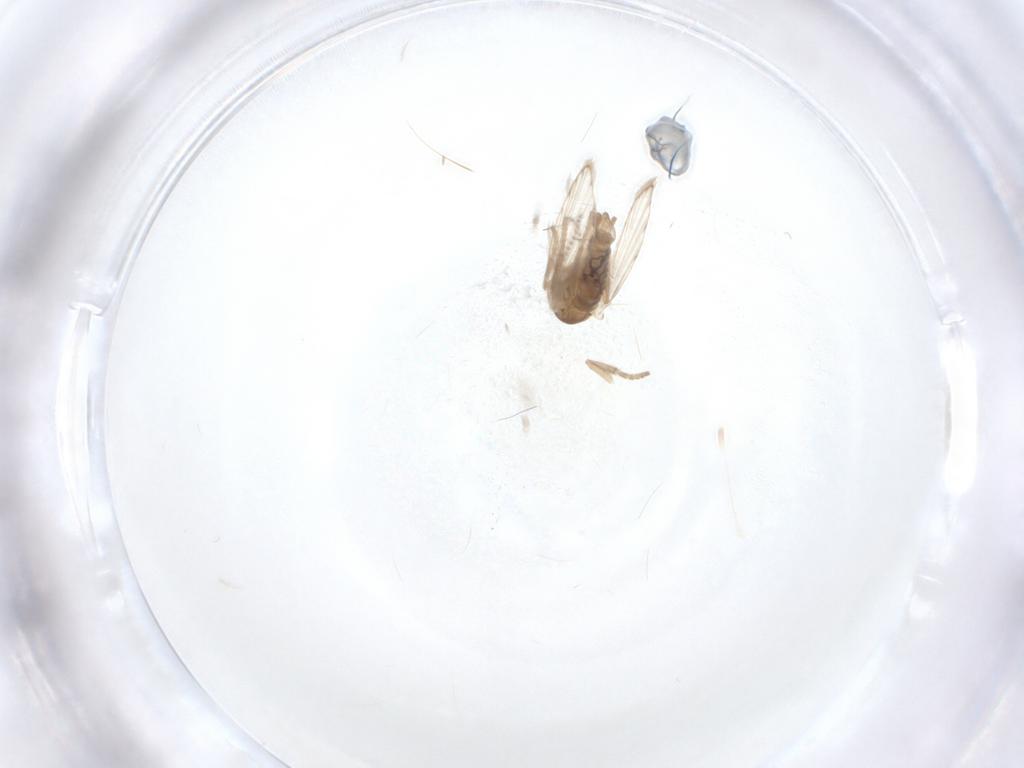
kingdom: Animalia
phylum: Arthropoda
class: Insecta
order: Diptera
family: Psychodidae
